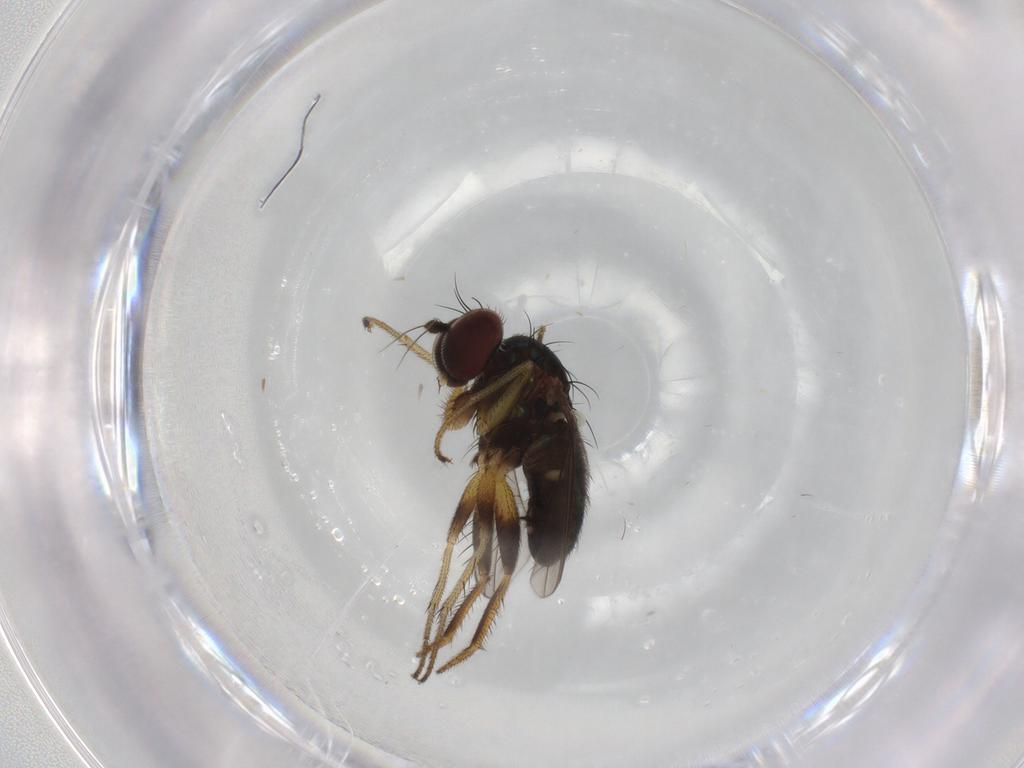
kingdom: Animalia
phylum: Arthropoda
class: Insecta
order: Diptera
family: Dolichopodidae
